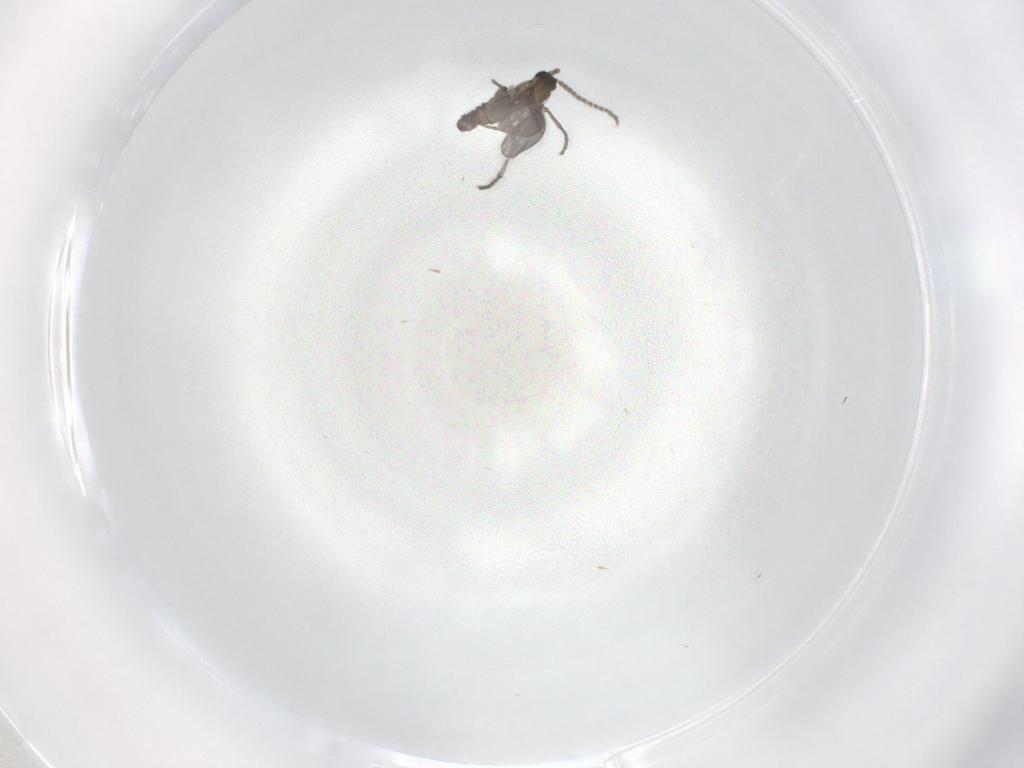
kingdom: Animalia
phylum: Arthropoda
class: Insecta
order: Diptera
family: Sciaridae
